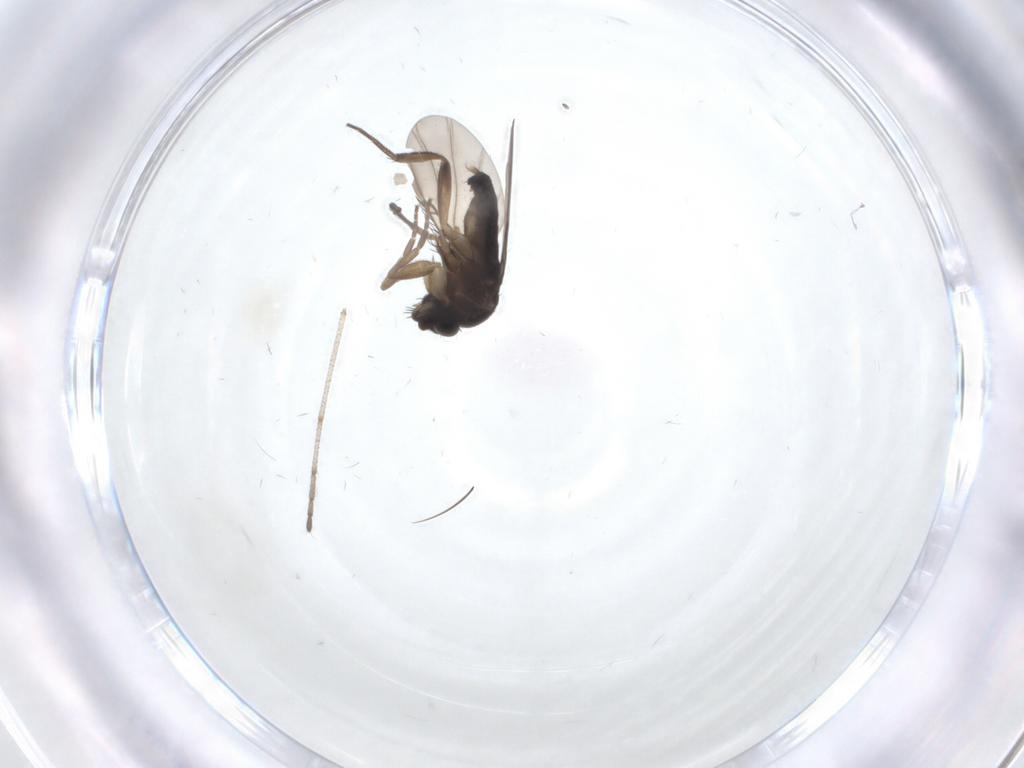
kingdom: Animalia
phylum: Arthropoda
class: Insecta
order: Diptera
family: Phoridae
